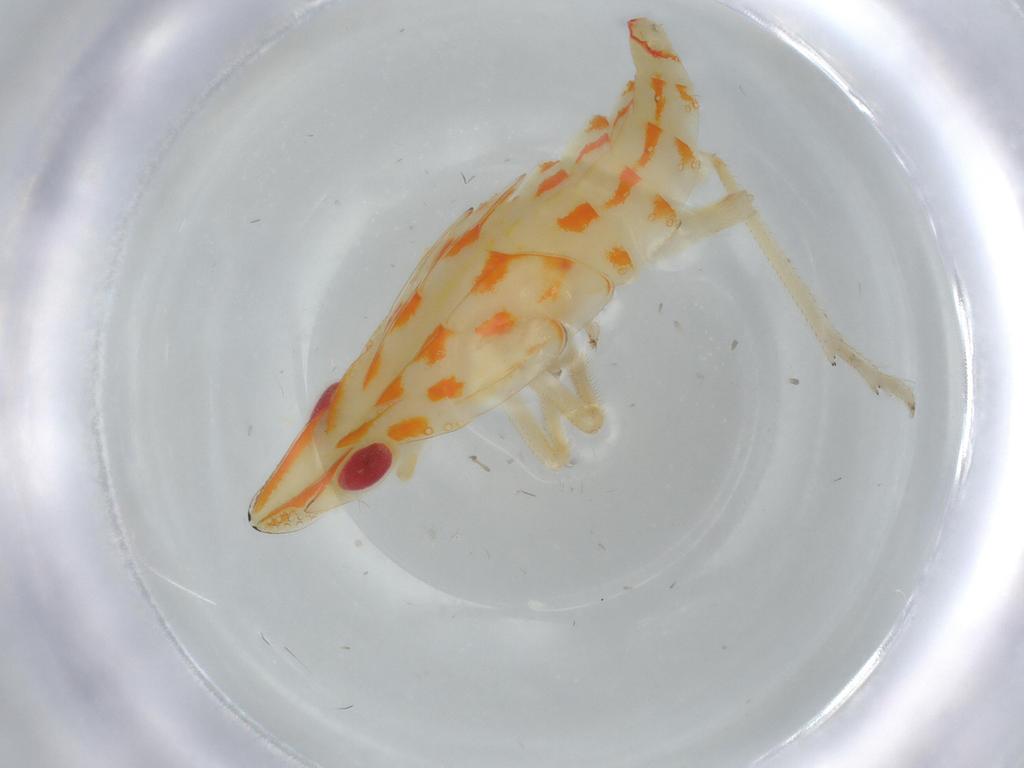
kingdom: Animalia
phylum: Arthropoda
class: Insecta
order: Hemiptera
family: Tropiduchidae
